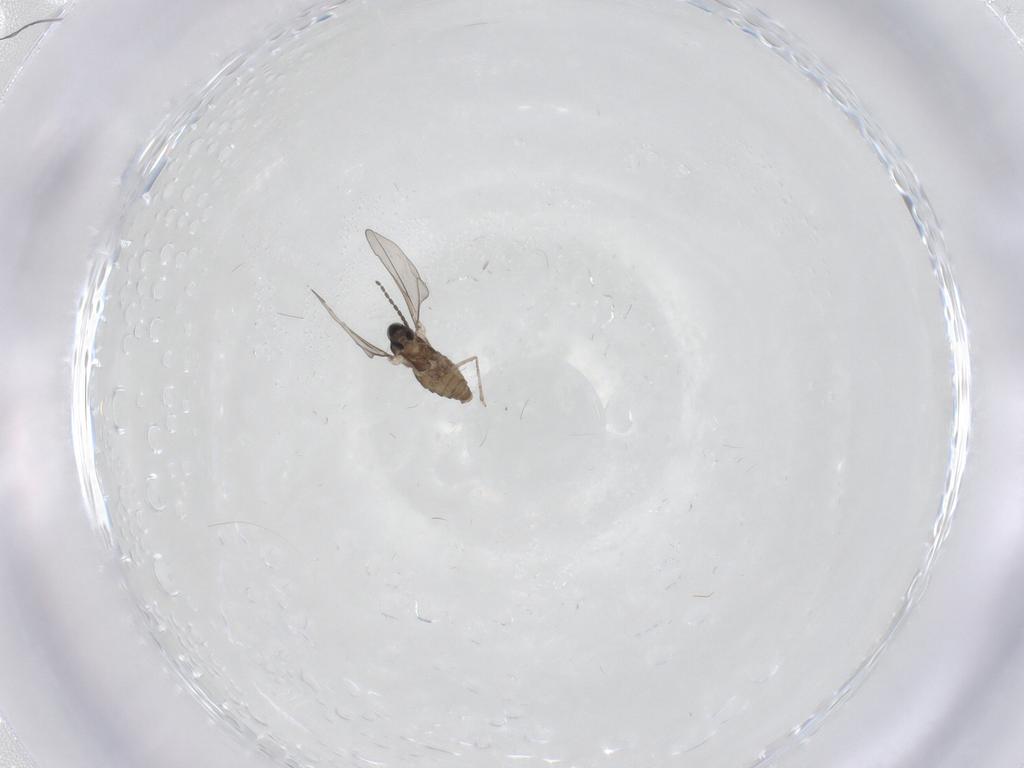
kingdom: Animalia
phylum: Arthropoda
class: Insecta
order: Diptera
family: Cecidomyiidae
